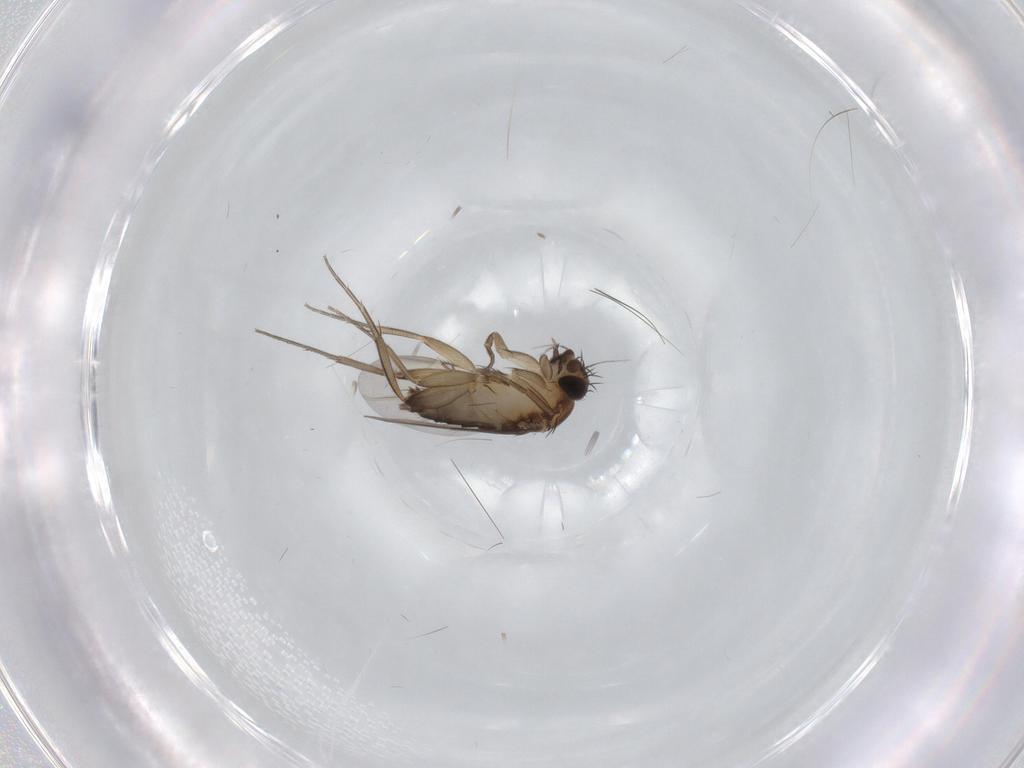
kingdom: Animalia
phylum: Arthropoda
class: Insecta
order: Diptera
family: Phoridae
